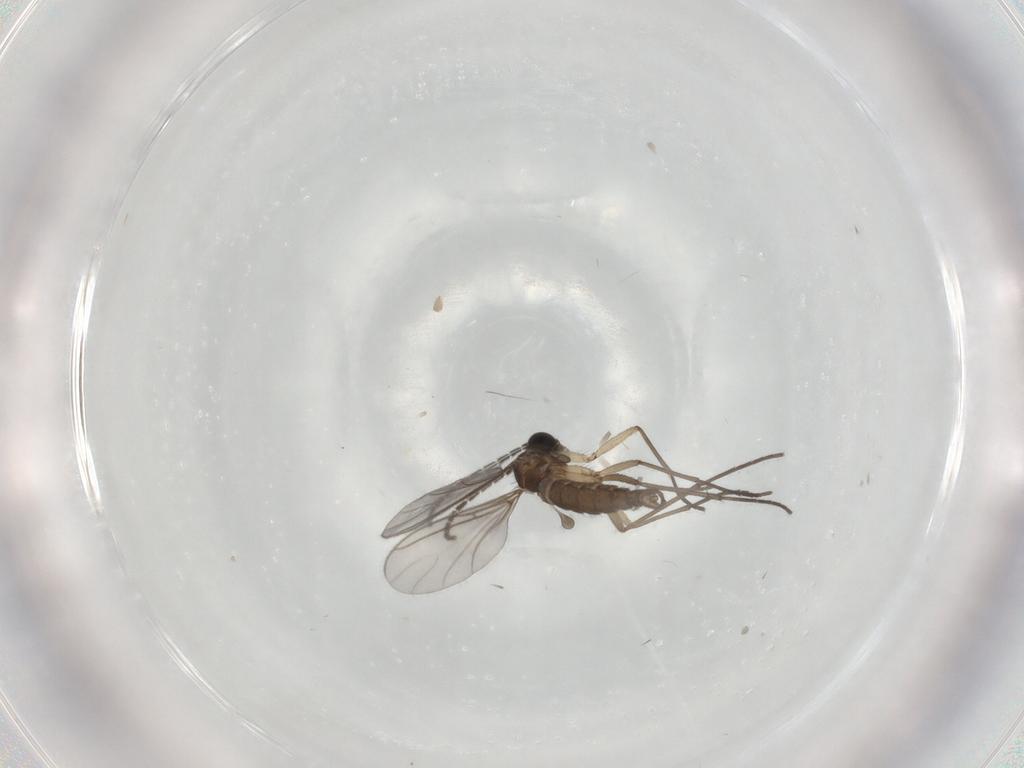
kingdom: Animalia
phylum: Arthropoda
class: Insecta
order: Diptera
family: Sciaridae
